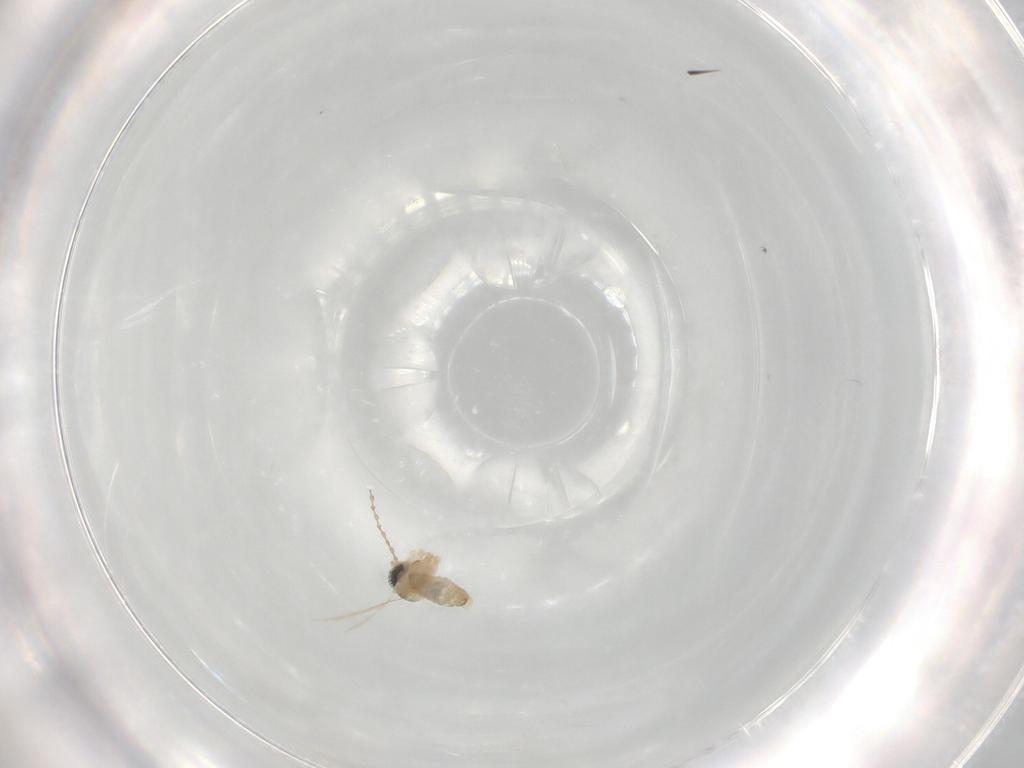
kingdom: Animalia
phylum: Arthropoda
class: Insecta
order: Diptera
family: Cecidomyiidae
